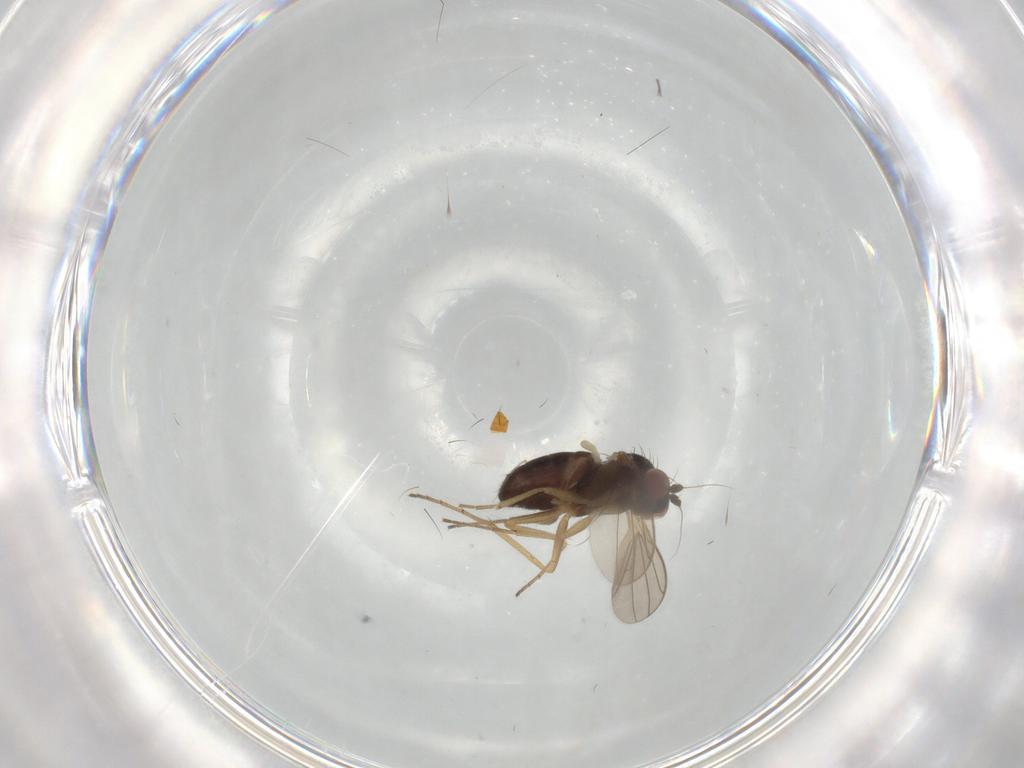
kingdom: Animalia
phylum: Arthropoda
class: Insecta
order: Diptera
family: Dolichopodidae
